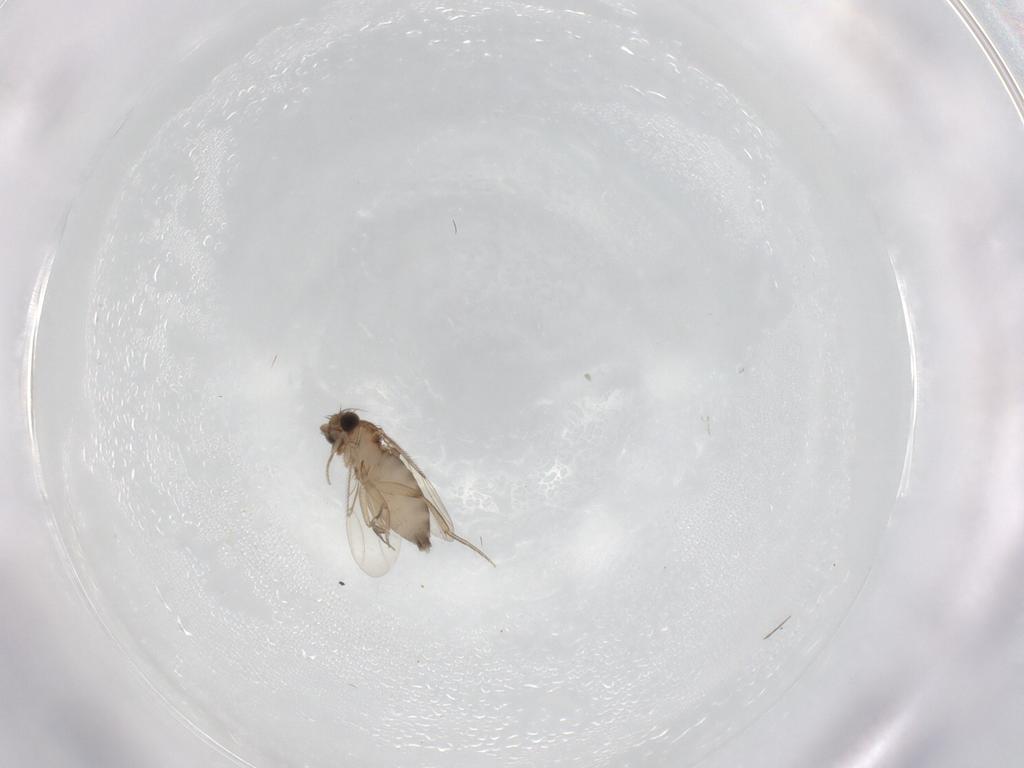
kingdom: Animalia
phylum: Arthropoda
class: Insecta
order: Diptera
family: Phoridae
